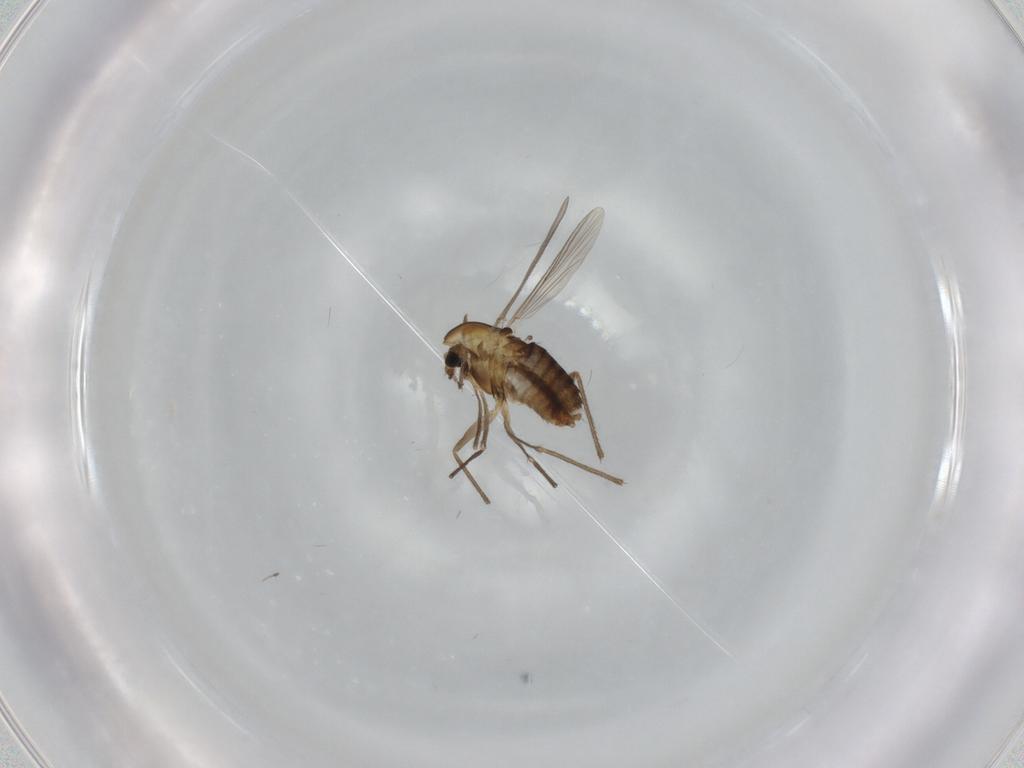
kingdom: Animalia
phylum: Arthropoda
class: Insecta
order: Diptera
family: Chironomidae
